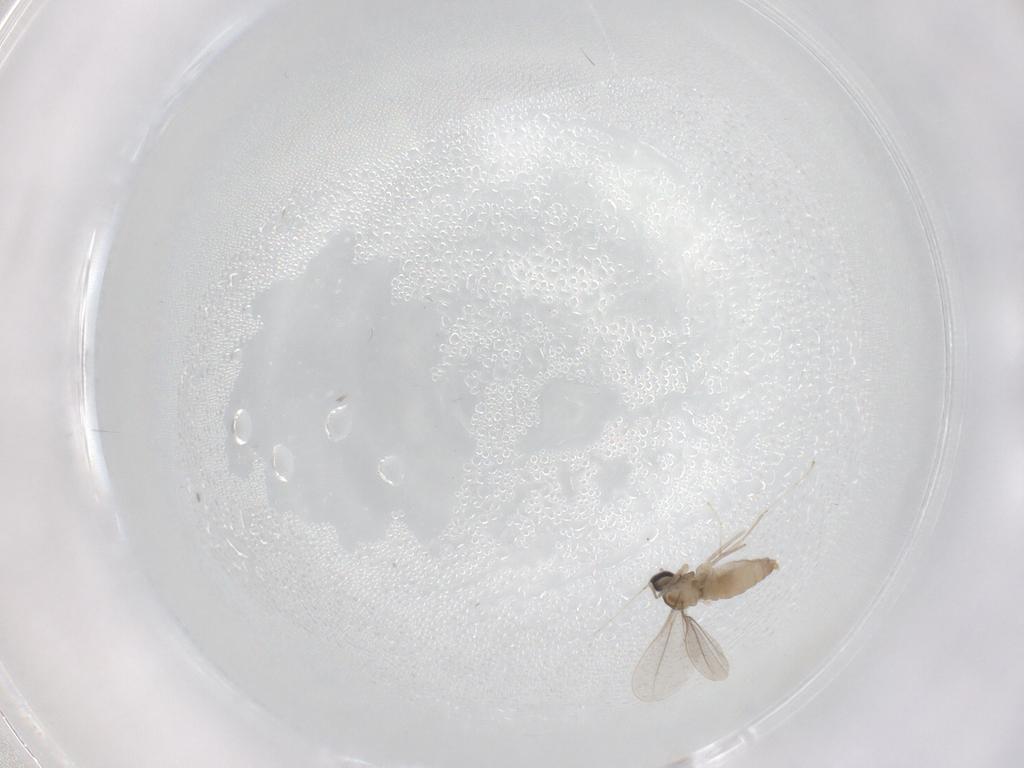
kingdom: Animalia
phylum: Arthropoda
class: Insecta
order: Diptera
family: Cecidomyiidae
